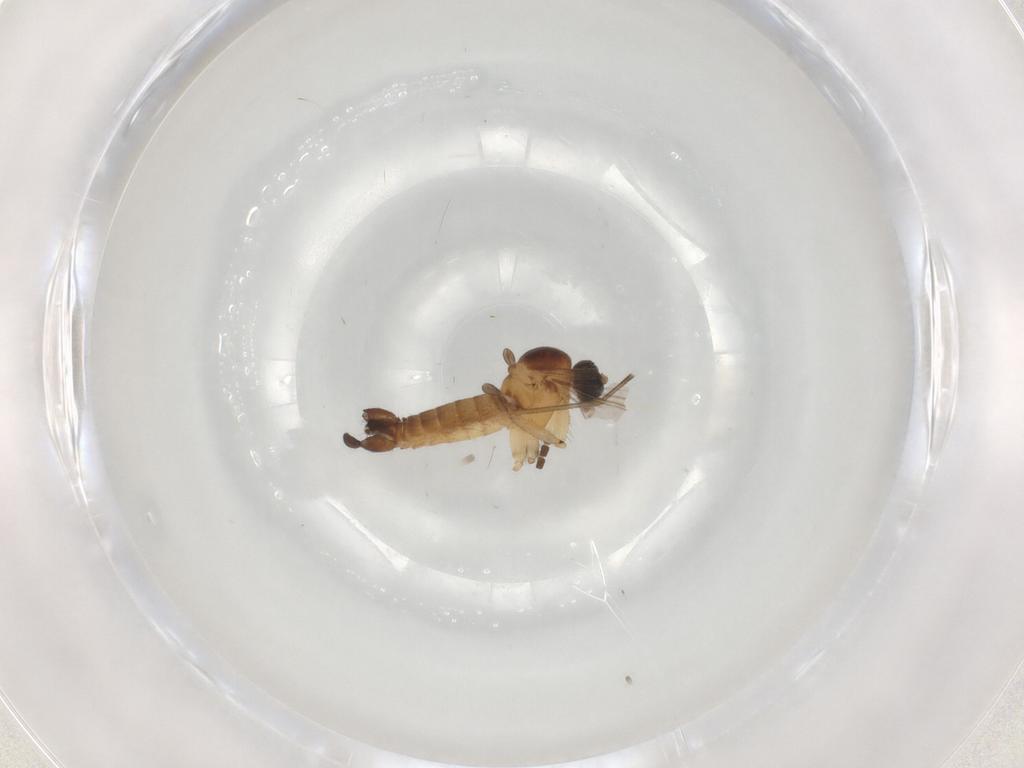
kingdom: Animalia
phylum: Arthropoda
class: Insecta
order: Diptera
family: Sciaridae
